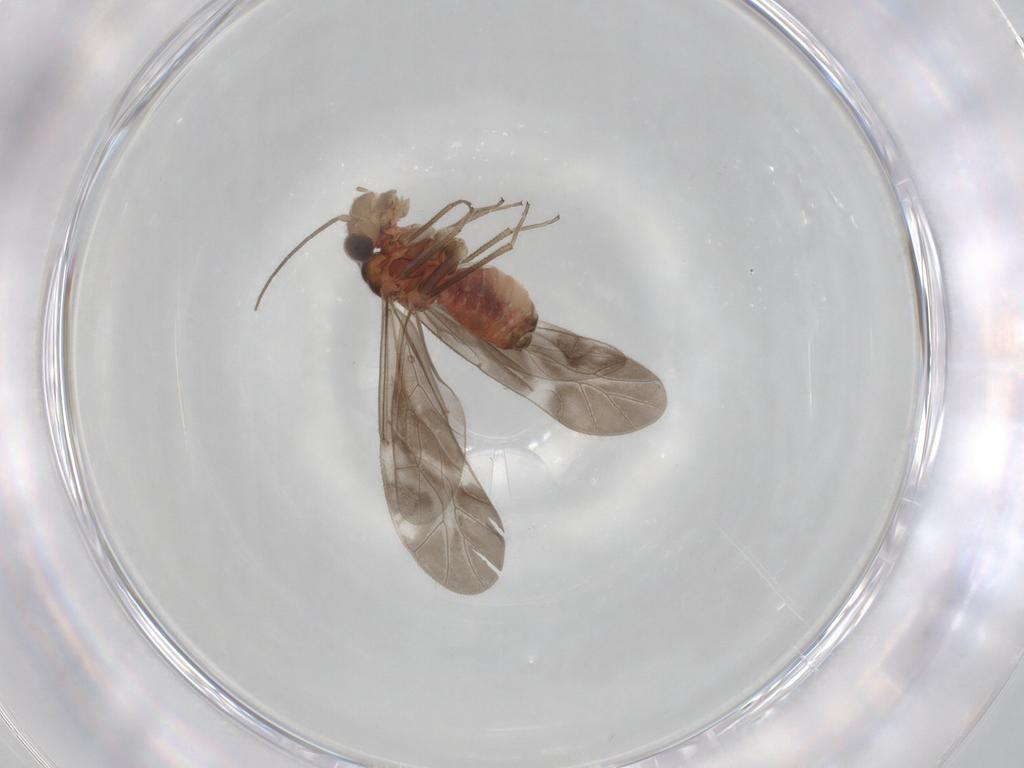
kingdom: Animalia
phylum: Arthropoda
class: Insecta
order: Psocodea
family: Caeciliusidae
